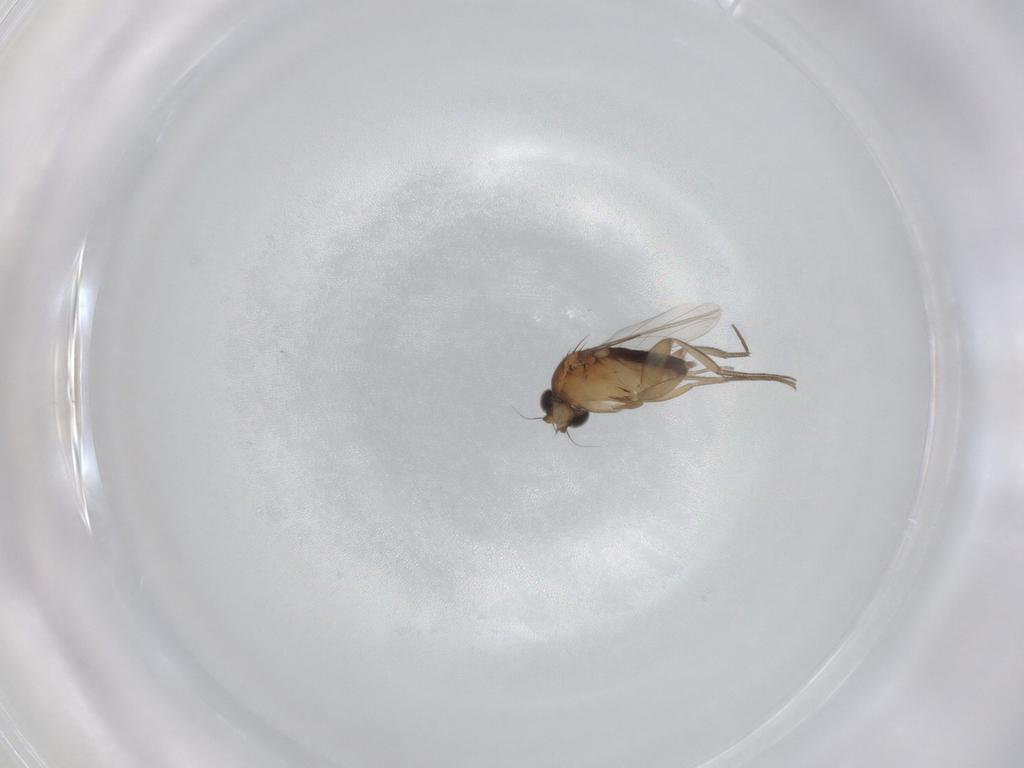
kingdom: Animalia
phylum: Arthropoda
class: Insecta
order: Diptera
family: Phoridae
